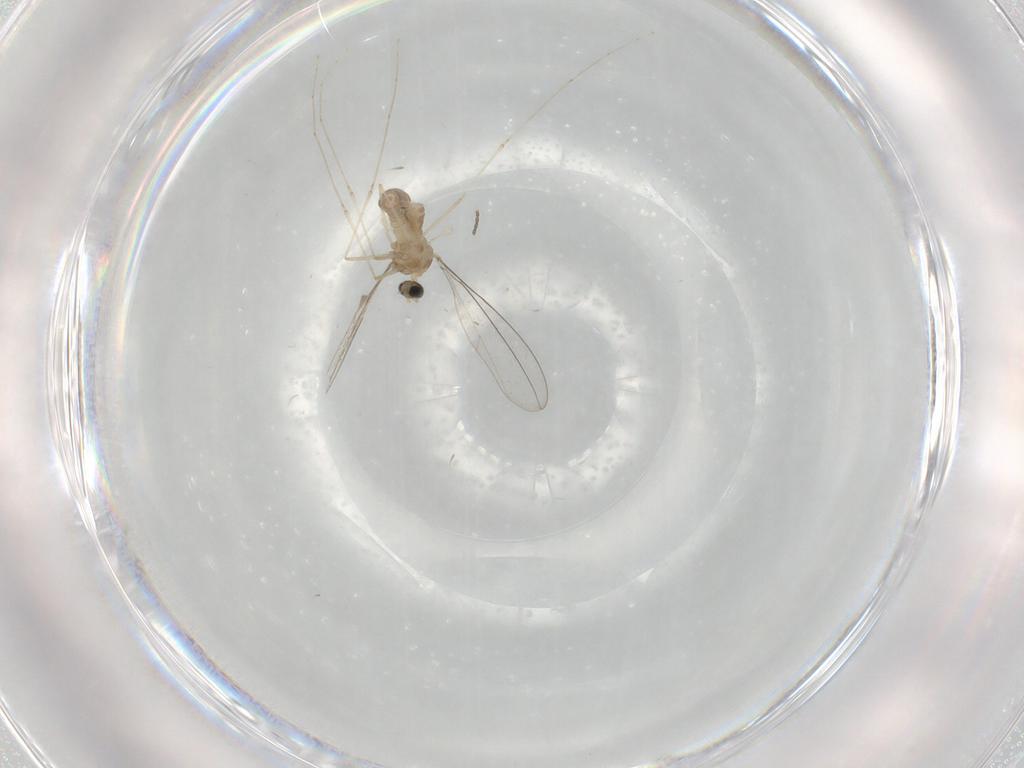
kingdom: Animalia
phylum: Arthropoda
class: Insecta
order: Diptera
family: Cecidomyiidae
